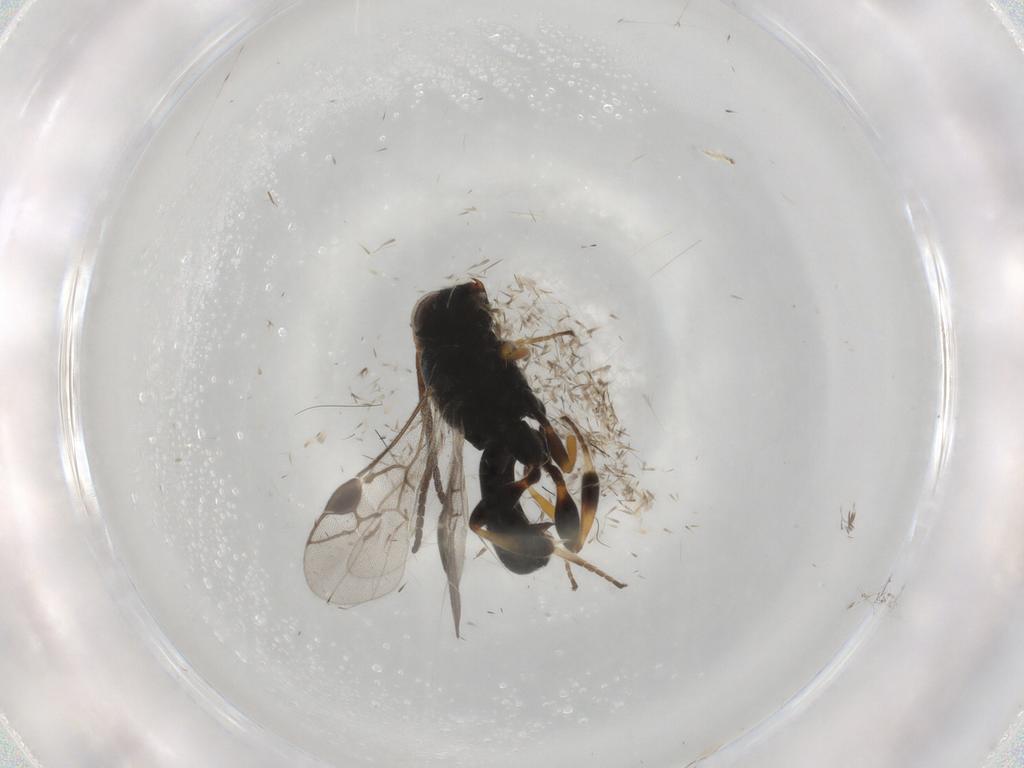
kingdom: Animalia
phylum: Arthropoda
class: Insecta
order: Hymenoptera
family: Braconidae
